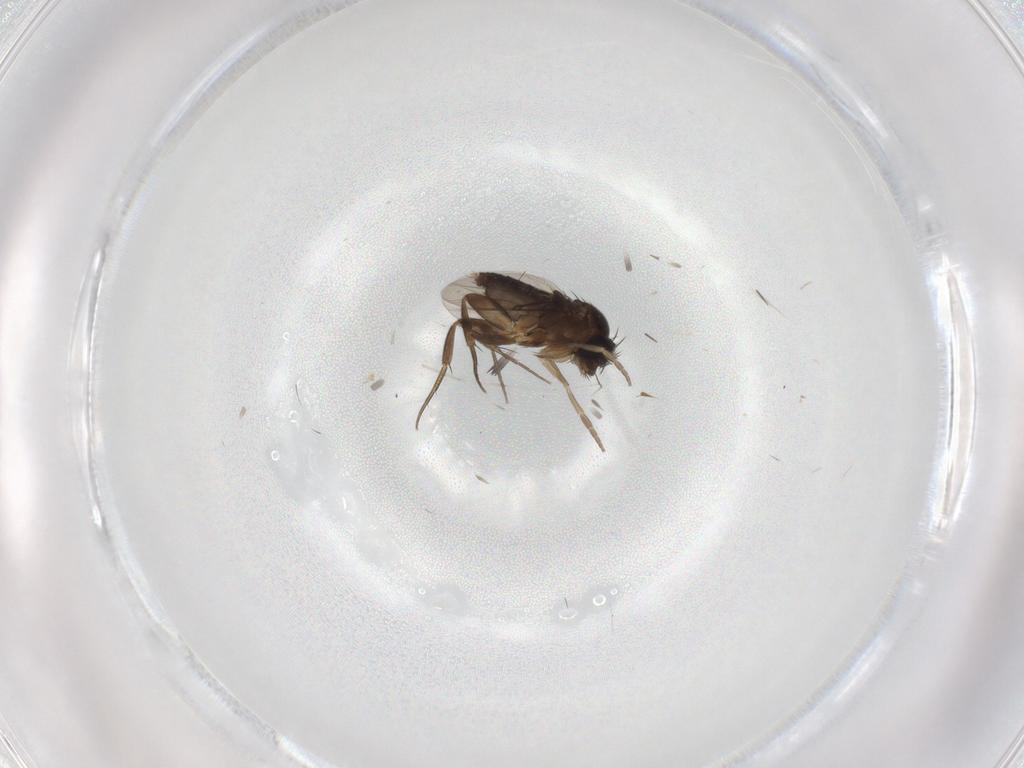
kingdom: Animalia
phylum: Arthropoda
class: Insecta
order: Diptera
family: Phoridae
